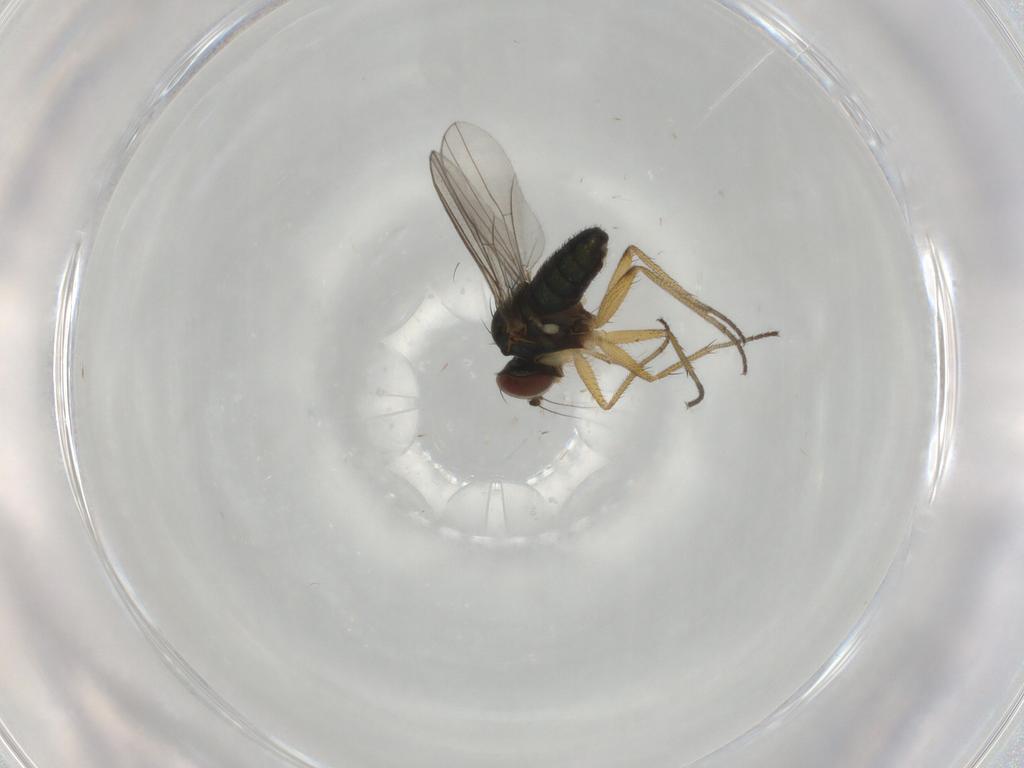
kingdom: Animalia
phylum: Arthropoda
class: Insecta
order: Diptera
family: Dolichopodidae
